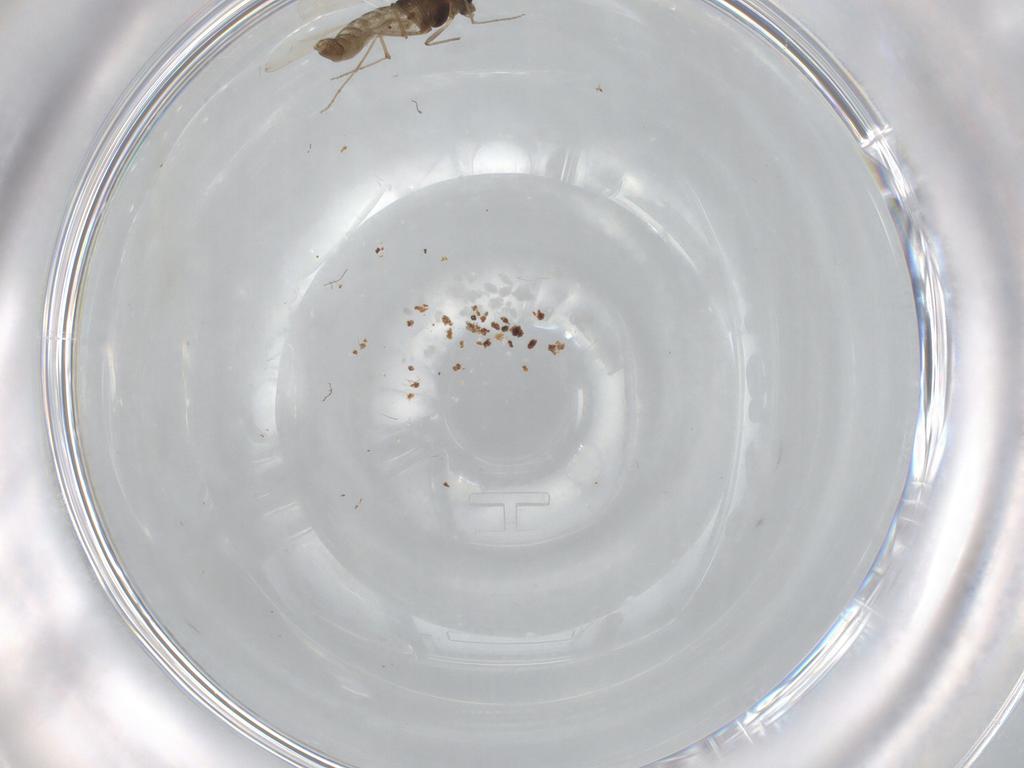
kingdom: Animalia
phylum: Arthropoda
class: Insecta
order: Diptera
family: Chironomidae
